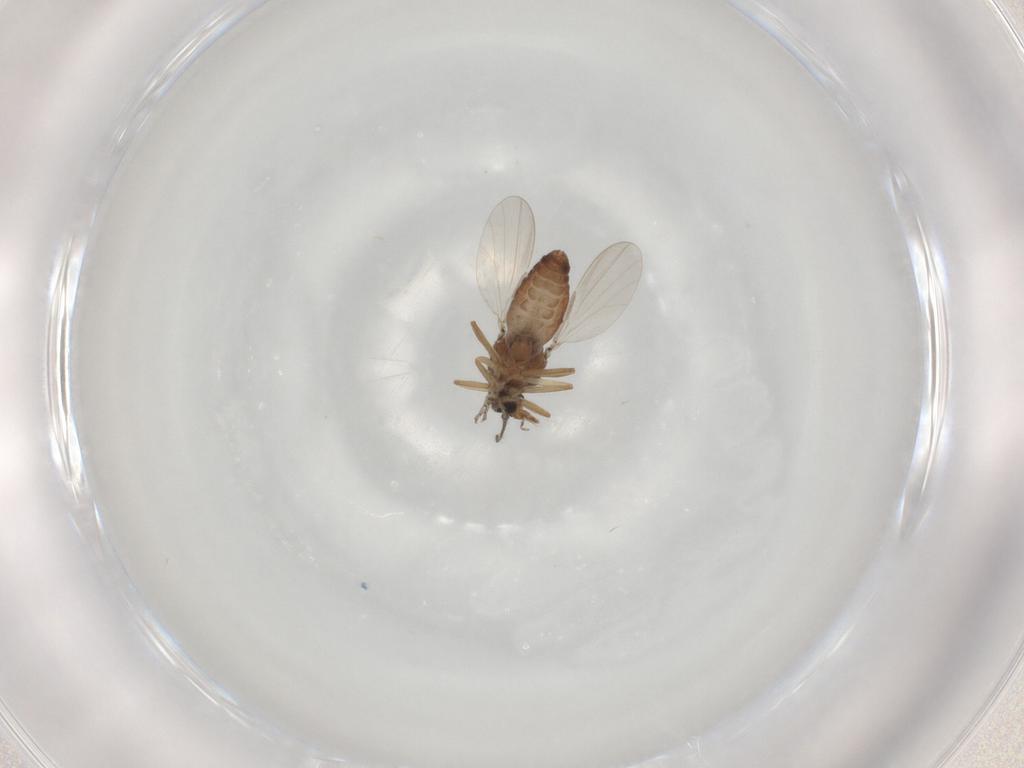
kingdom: Animalia
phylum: Arthropoda
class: Insecta
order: Diptera
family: Ceratopogonidae
